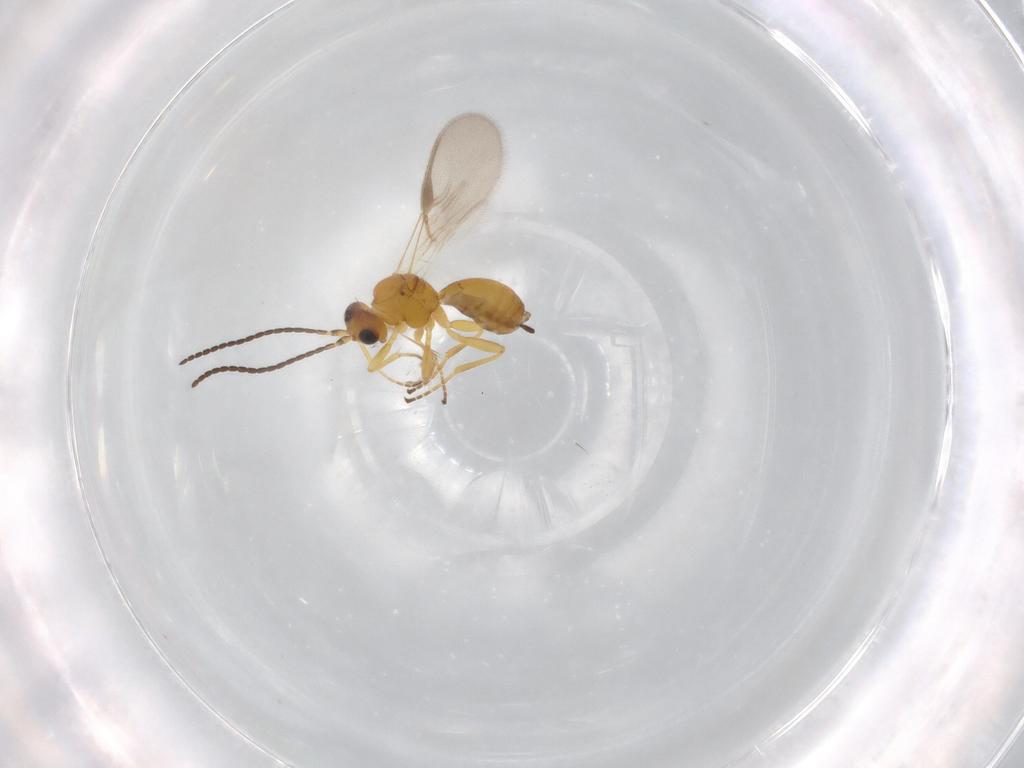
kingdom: Animalia
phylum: Arthropoda
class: Insecta
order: Hymenoptera
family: Braconidae
